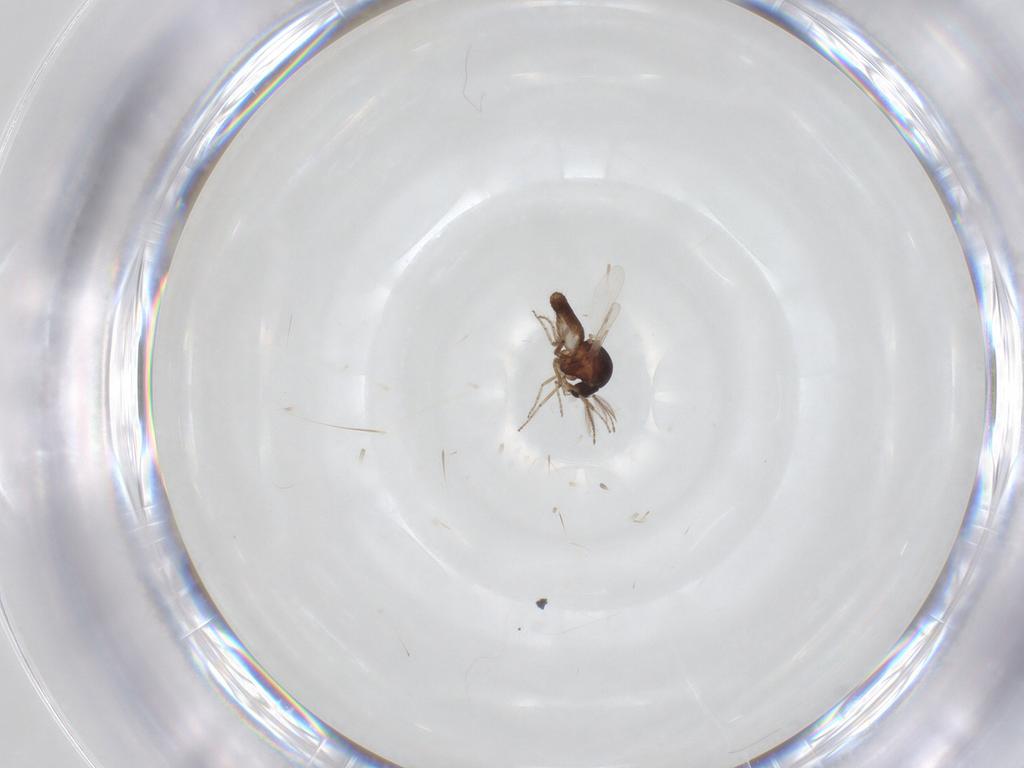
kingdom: Animalia
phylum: Arthropoda
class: Insecta
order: Diptera
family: Ceratopogonidae
